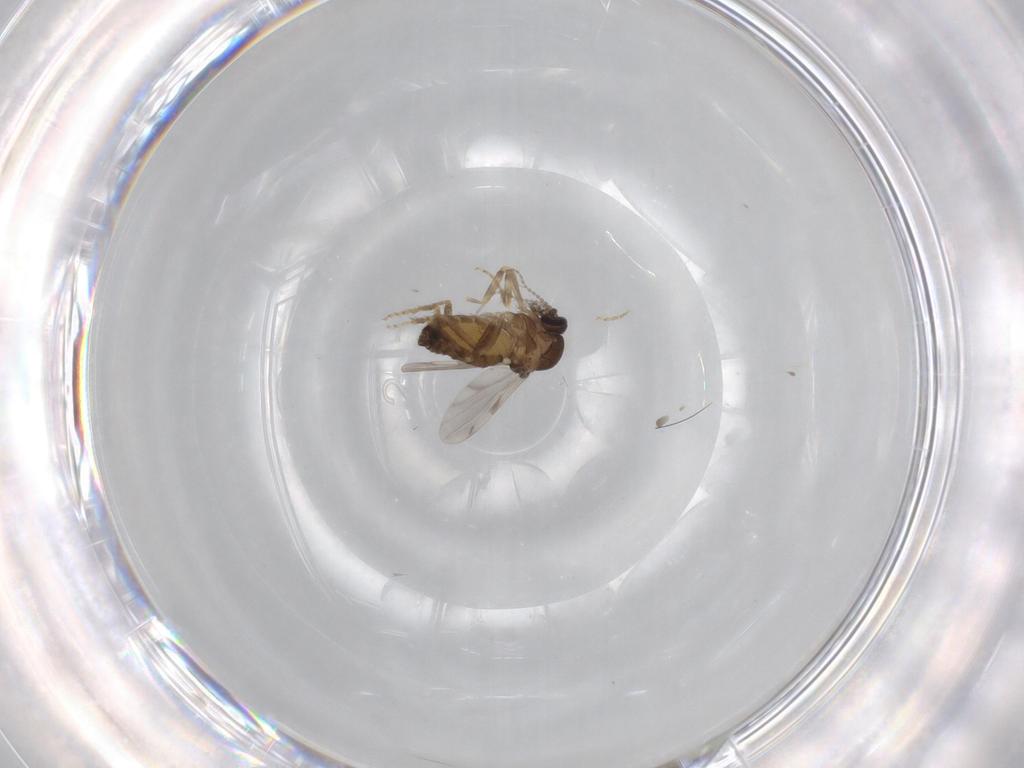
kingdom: Animalia
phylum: Arthropoda
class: Insecta
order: Diptera
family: Ceratopogonidae
